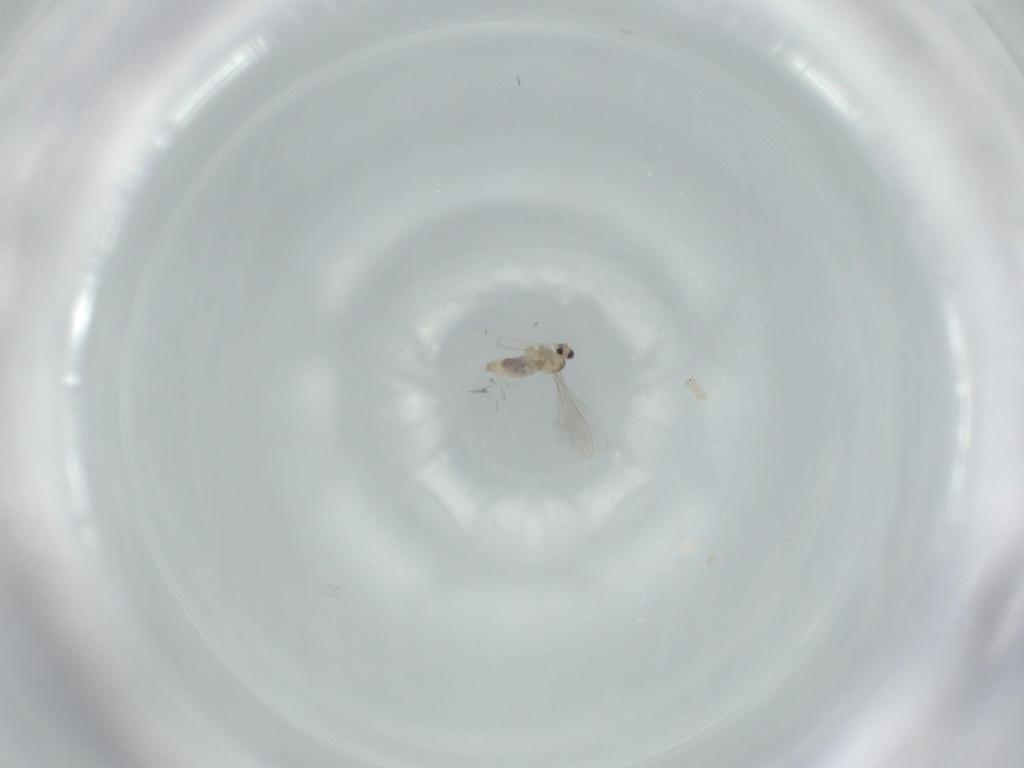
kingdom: Animalia
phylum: Arthropoda
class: Insecta
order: Diptera
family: Cecidomyiidae
